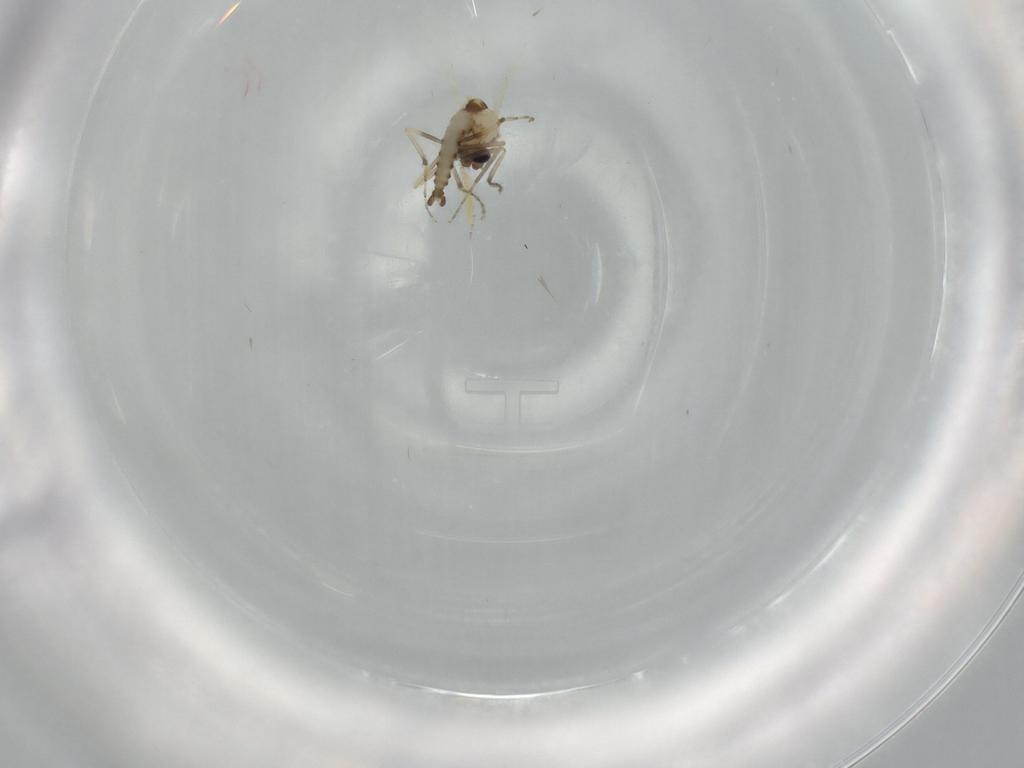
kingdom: Animalia
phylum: Arthropoda
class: Insecta
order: Diptera
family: Ceratopogonidae
